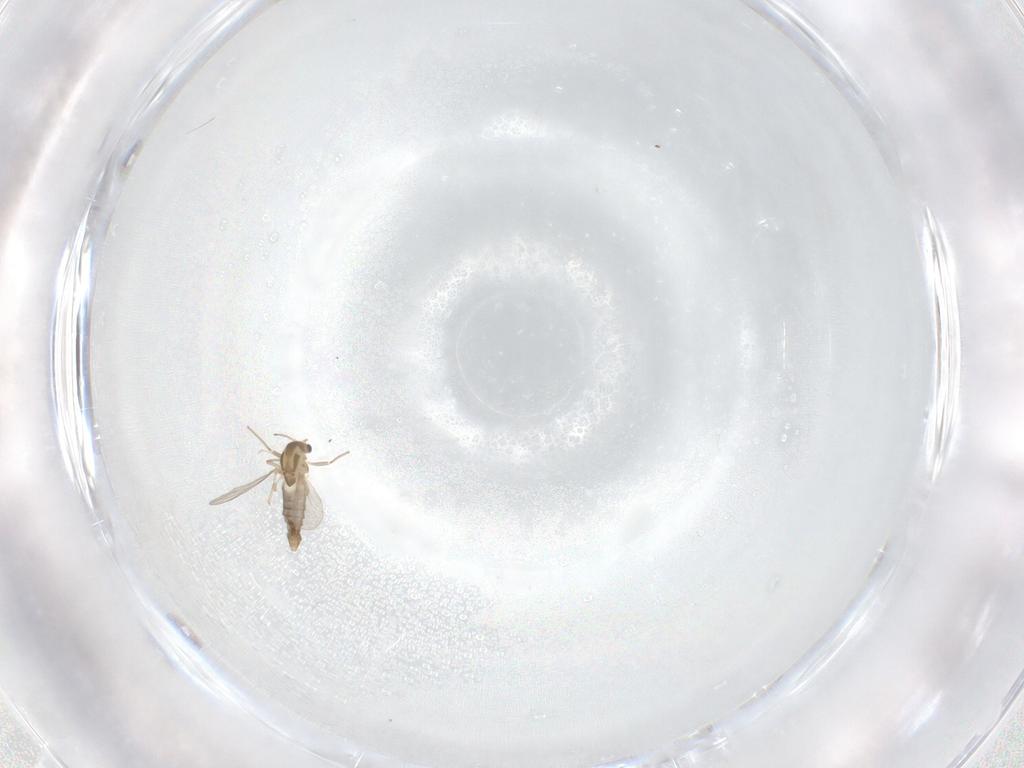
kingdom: Animalia
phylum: Arthropoda
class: Insecta
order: Diptera
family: Chironomidae
